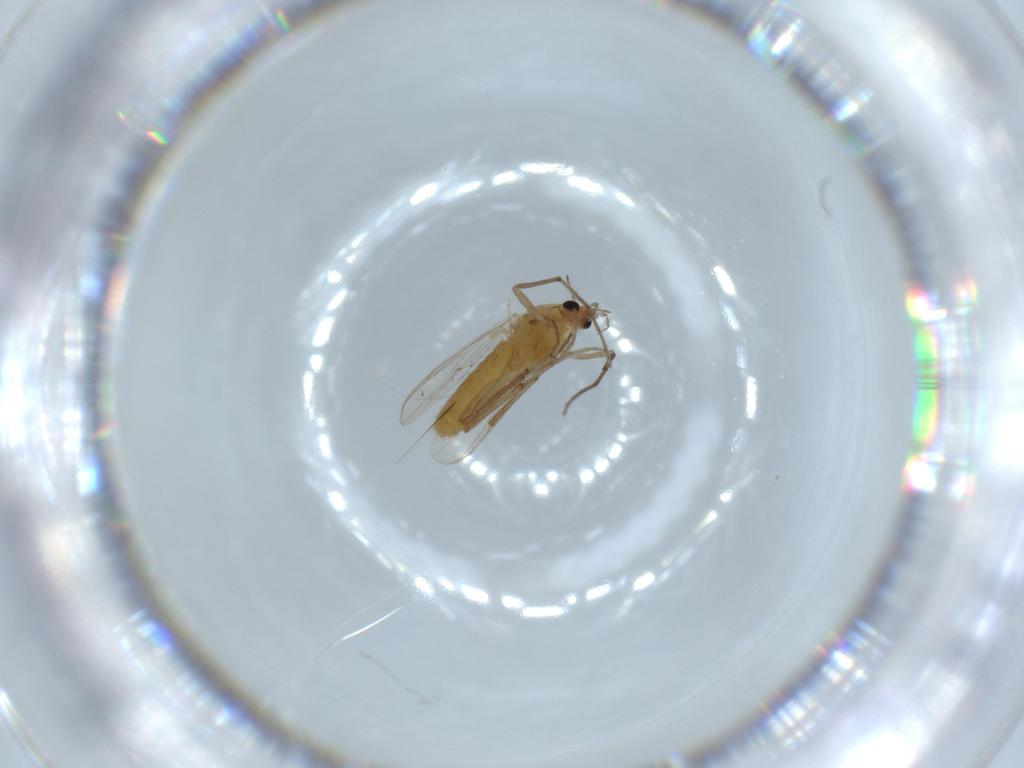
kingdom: Animalia
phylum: Arthropoda
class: Insecta
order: Diptera
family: Chironomidae
